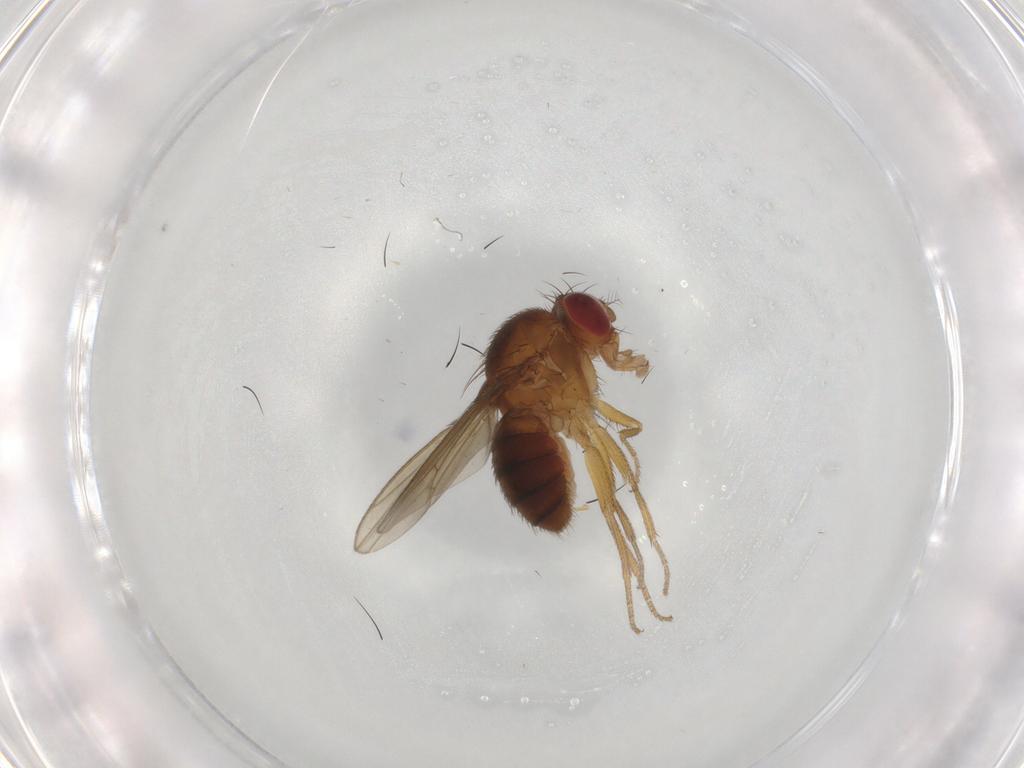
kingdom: Animalia
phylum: Arthropoda
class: Insecta
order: Diptera
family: Drosophilidae
